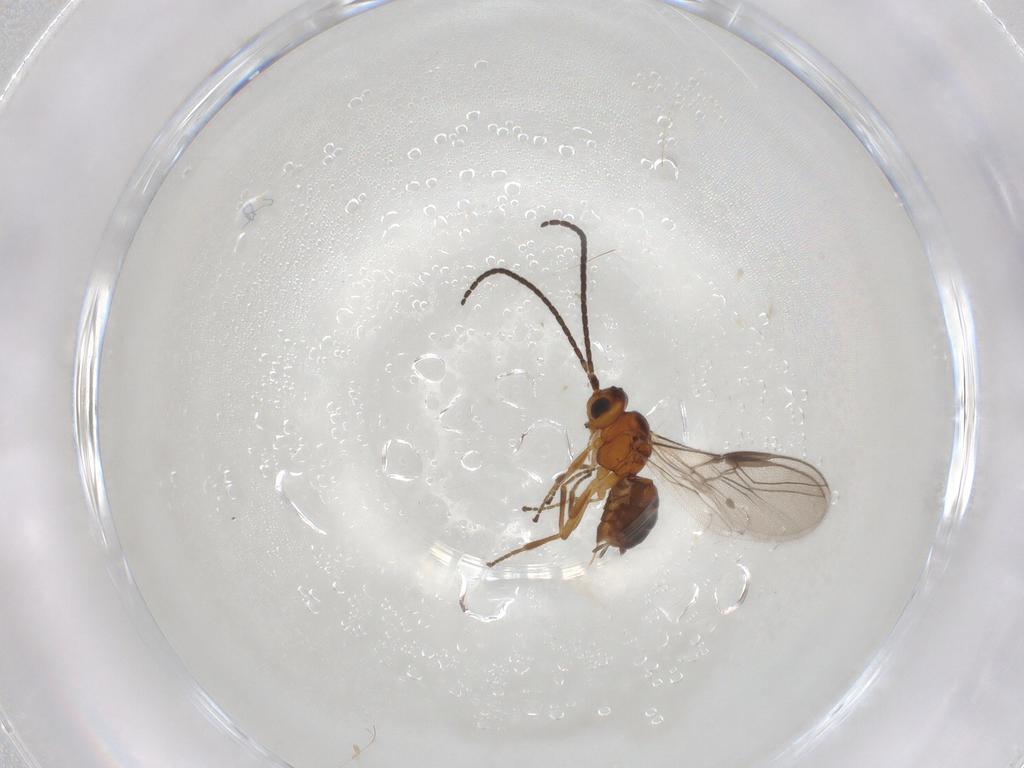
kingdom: Animalia
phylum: Arthropoda
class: Insecta
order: Hymenoptera
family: Braconidae
